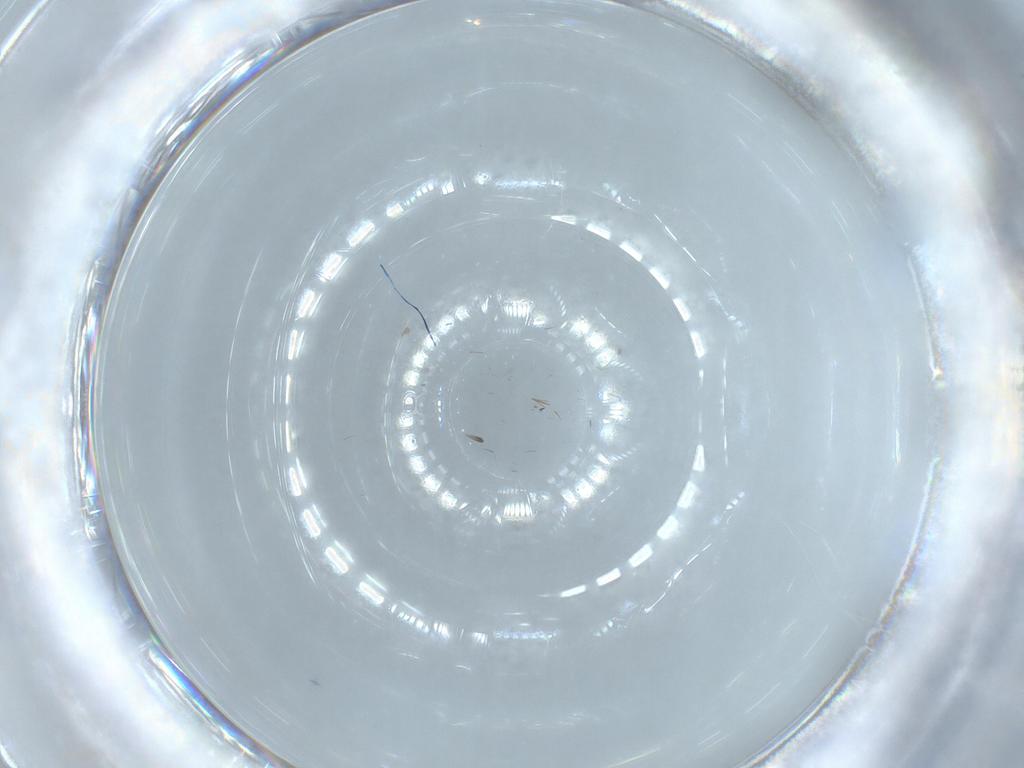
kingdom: Animalia
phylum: Arthropoda
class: Insecta
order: Hymenoptera
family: Platygastridae
